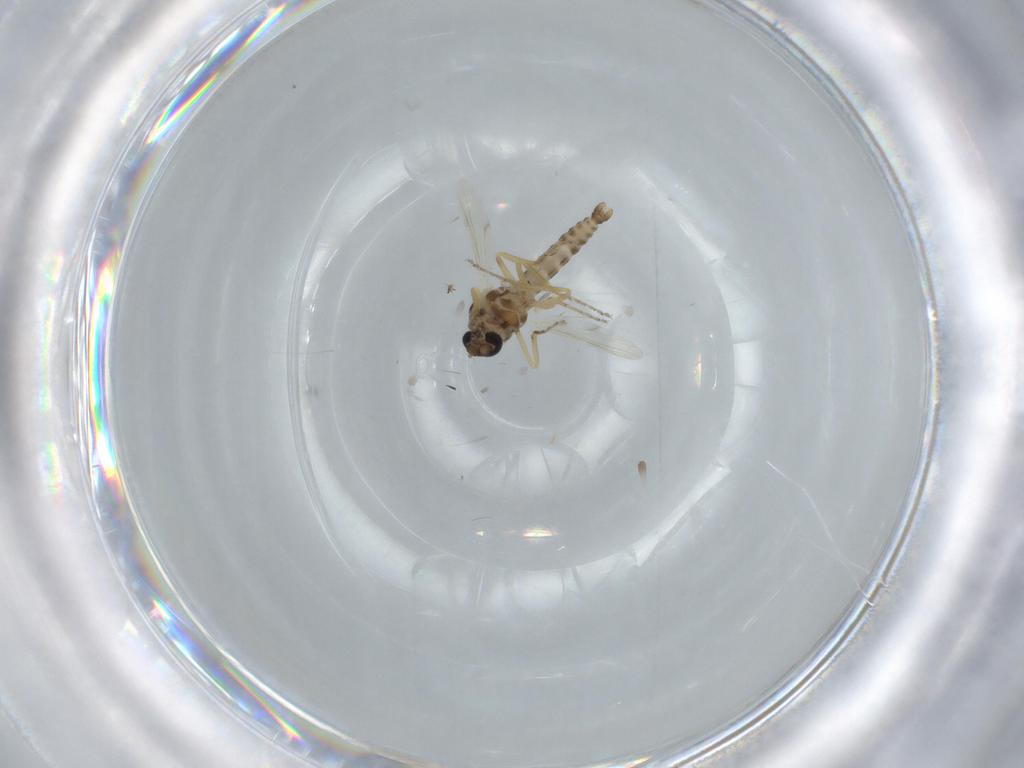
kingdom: Animalia
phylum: Arthropoda
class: Insecta
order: Diptera
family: Ceratopogonidae
